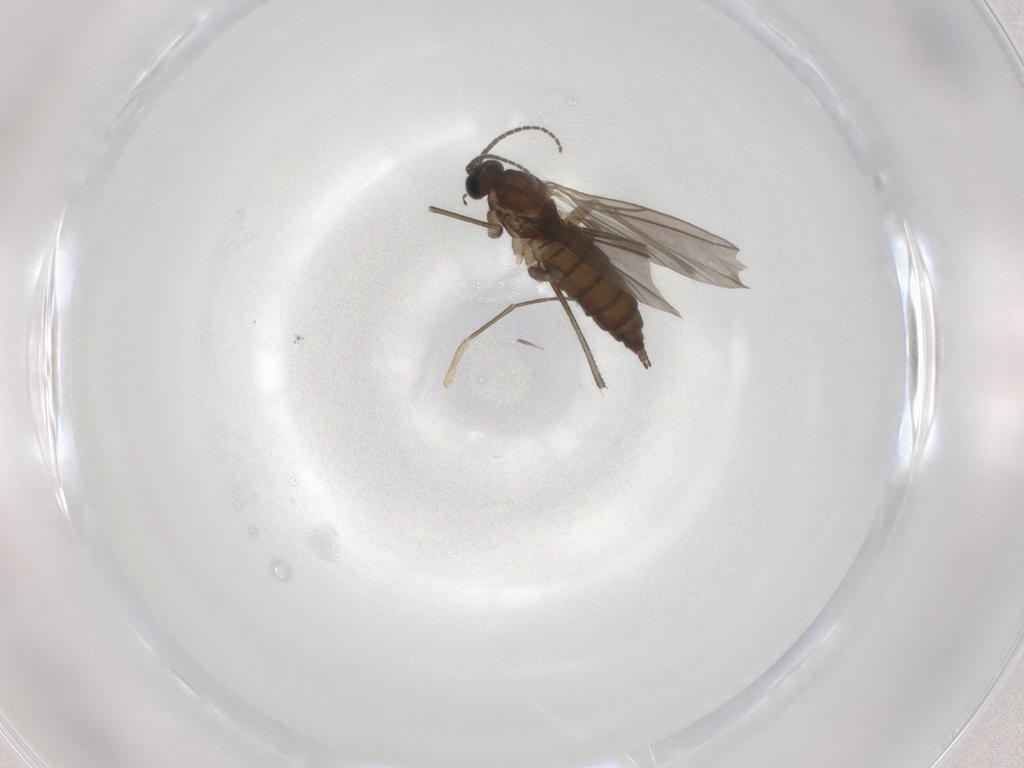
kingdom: Animalia
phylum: Arthropoda
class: Insecta
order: Diptera
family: Sciaridae
